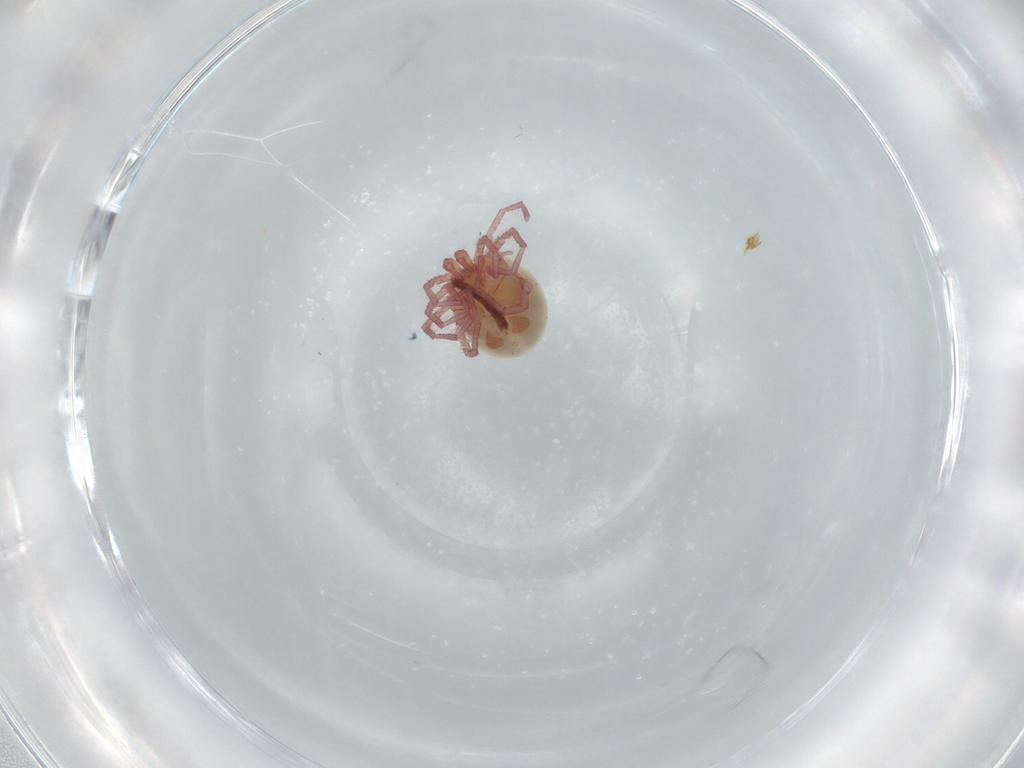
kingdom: Animalia
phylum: Arthropoda
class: Arachnida
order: Trombidiformes
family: Pionidae
